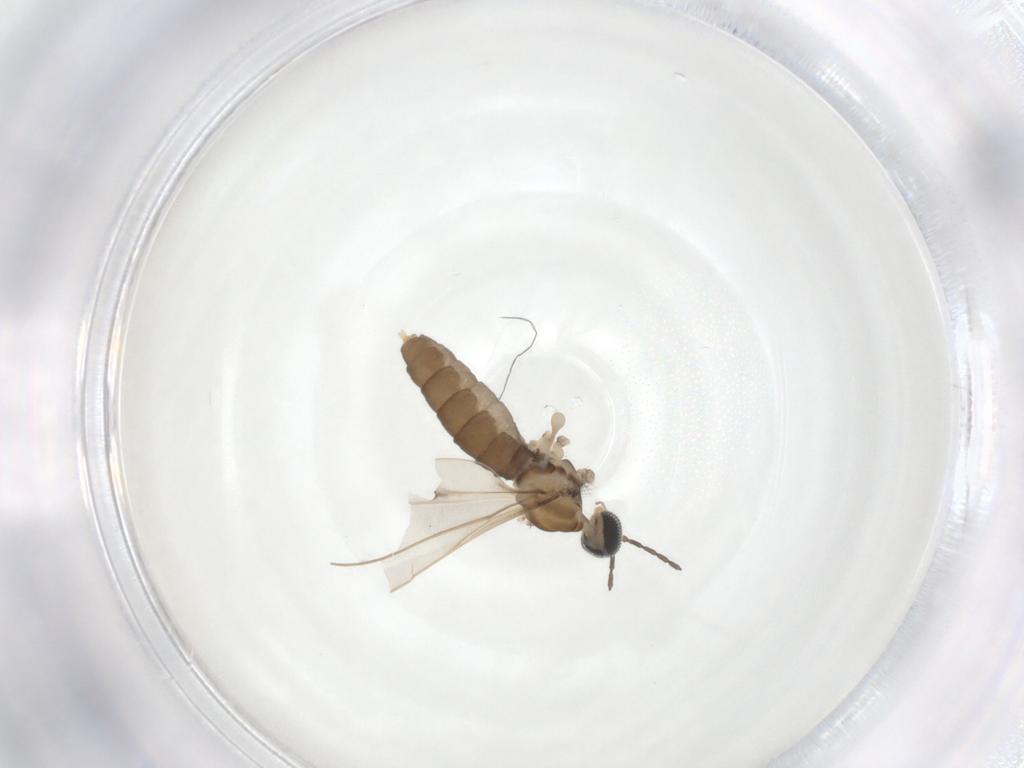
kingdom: Animalia
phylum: Arthropoda
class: Insecta
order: Diptera
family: Cecidomyiidae
